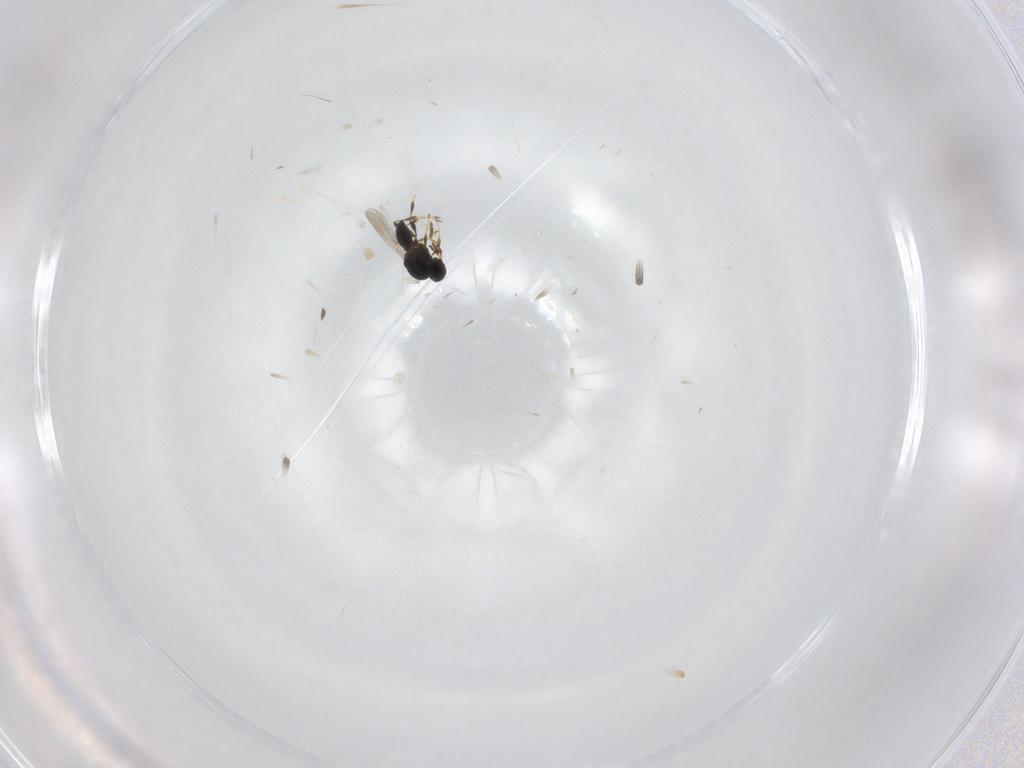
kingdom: Animalia
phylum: Arthropoda
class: Insecta
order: Hymenoptera
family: Platygastridae
